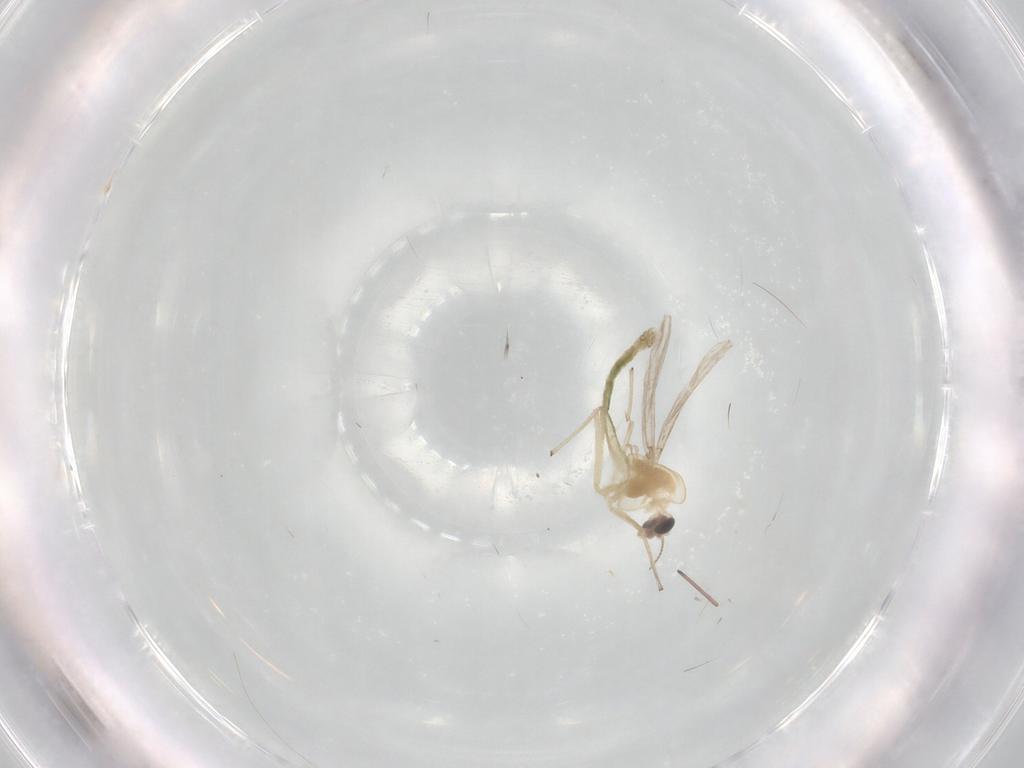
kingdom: Animalia
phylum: Arthropoda
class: Insecta
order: Diptera
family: Chironomidae
